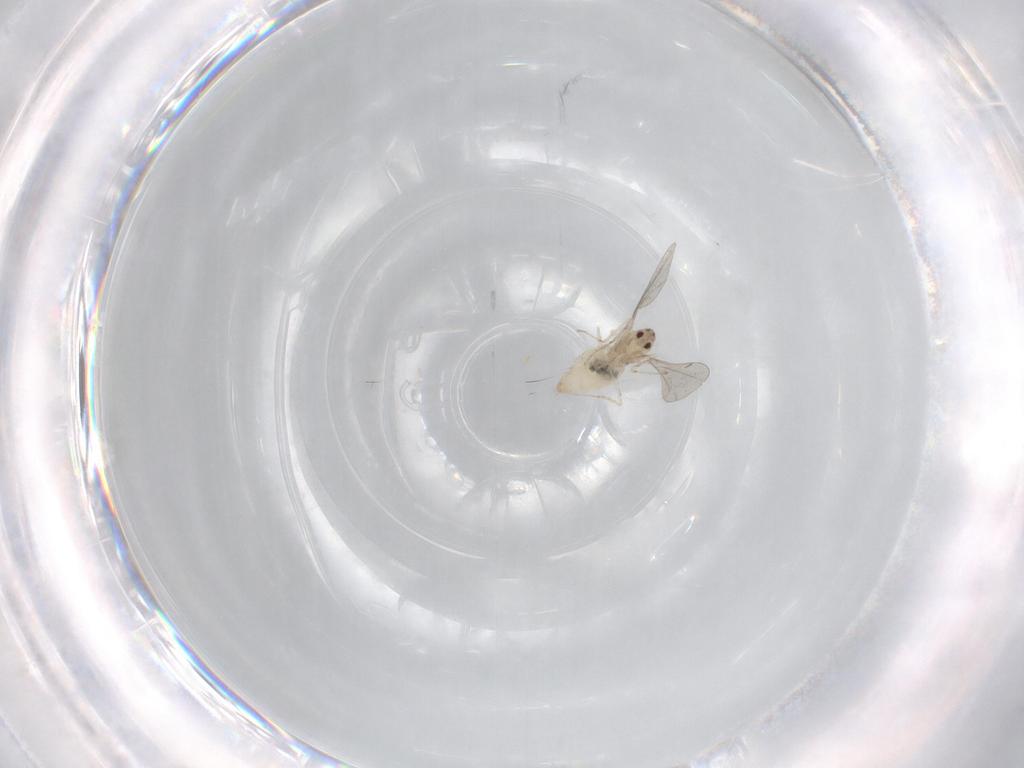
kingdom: Animalia
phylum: Arthropoda
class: Insecta
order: Diptera
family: Cecidomyiidae
